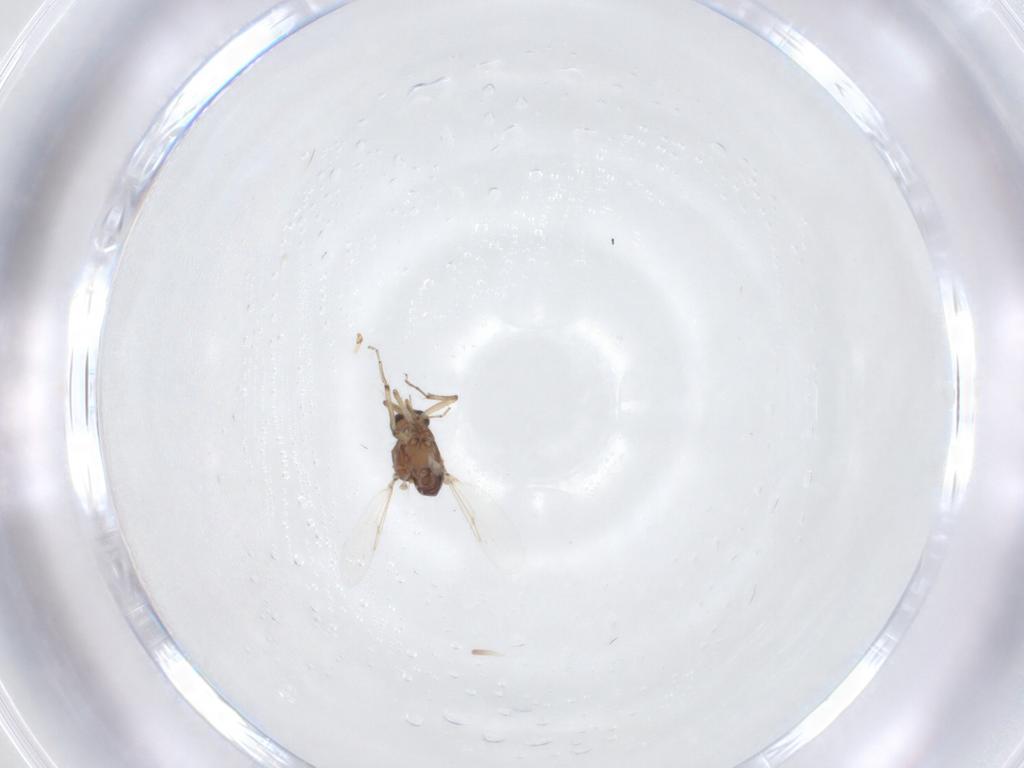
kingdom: Animalia
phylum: Arthropoda
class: Insecta
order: Diptera
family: Ceratopogonidae
